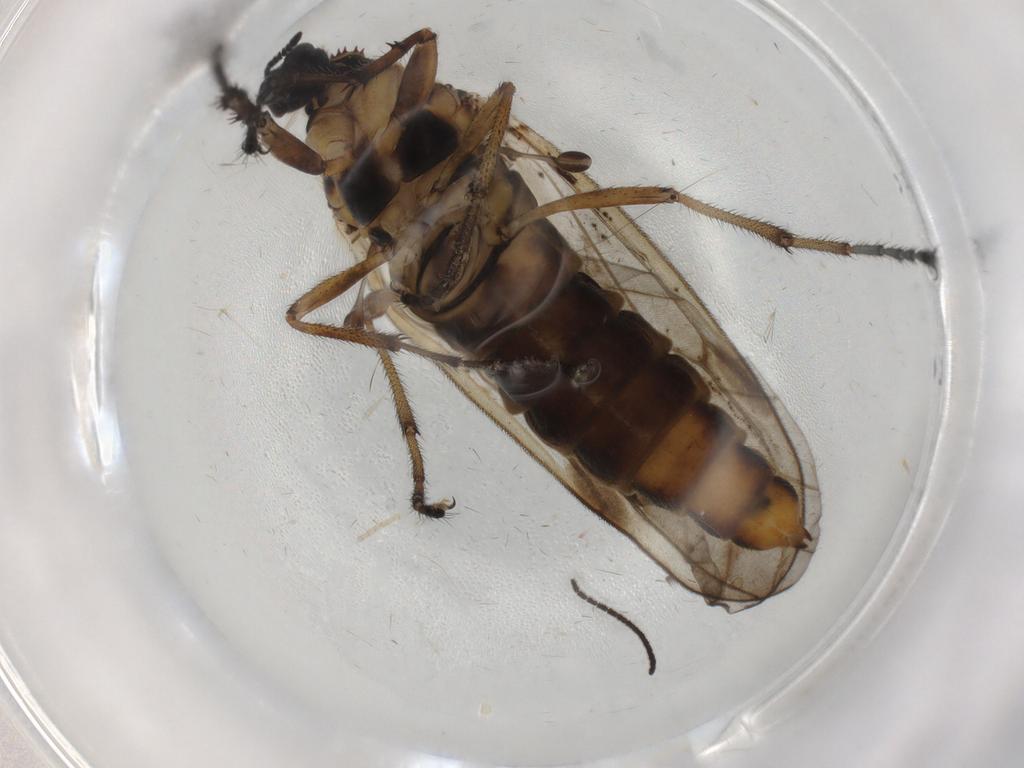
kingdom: Animalia
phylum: Arthropoda
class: Insecta
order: Diptera
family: Bibionidae
